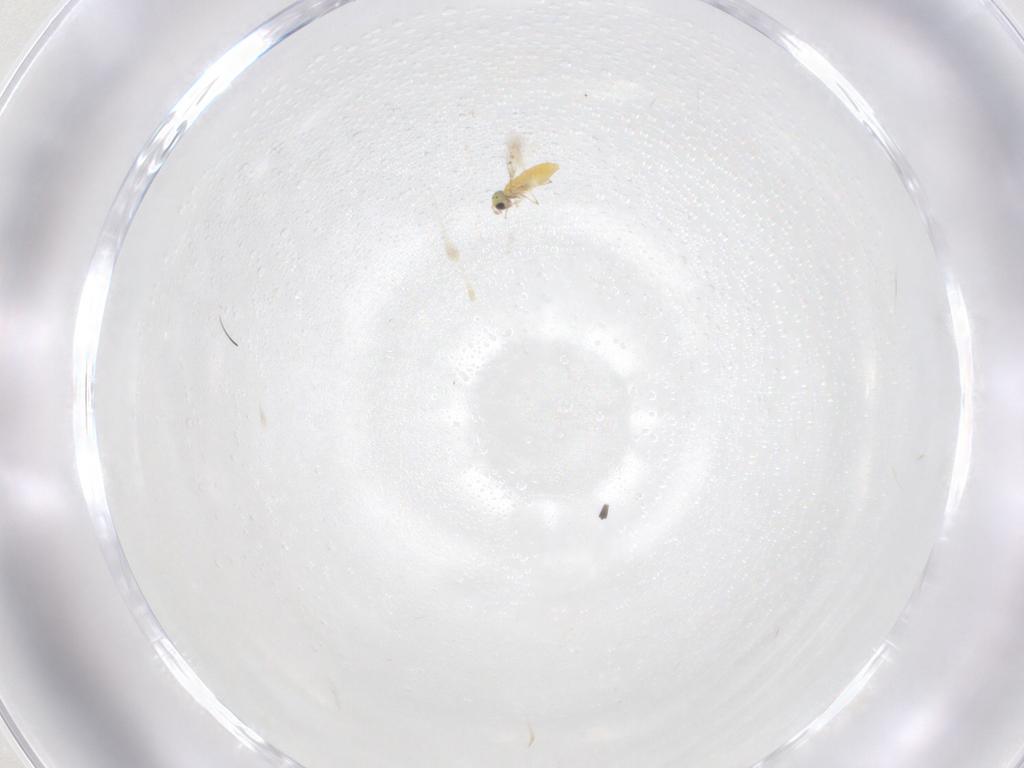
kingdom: Animalia
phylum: Arthropoda
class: Insecta
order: Hymenoptera
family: Trichogrammatidae
